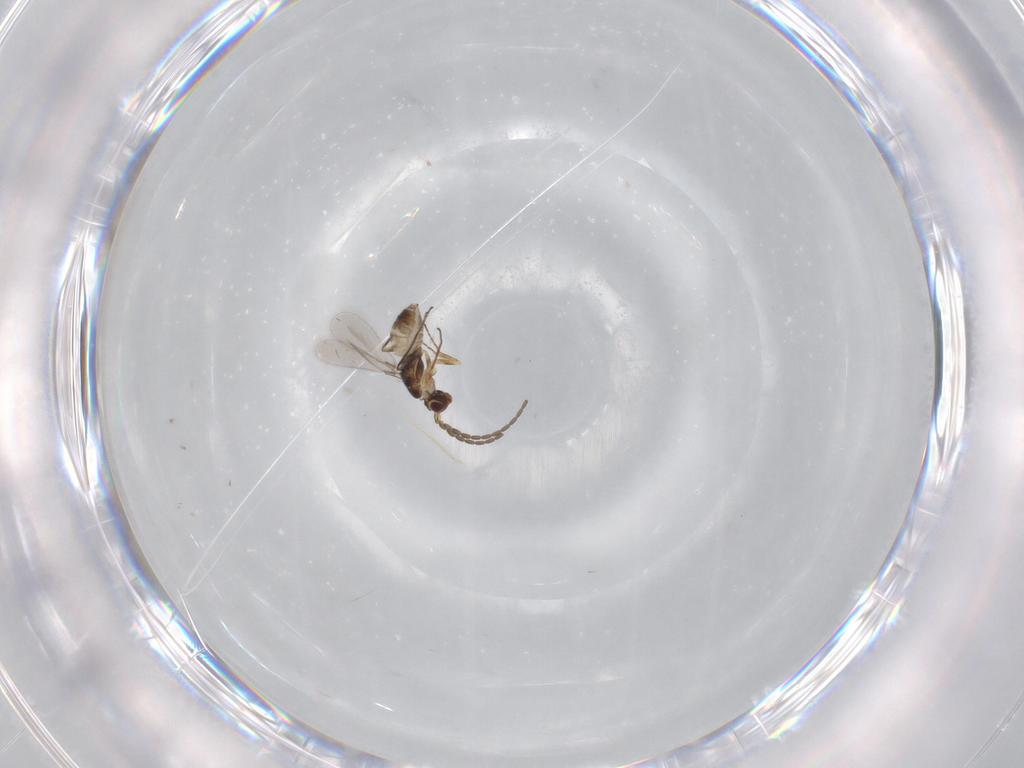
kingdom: Animalia
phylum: Arthropoda
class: Insecta
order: Hymenoptera
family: Mymaridae
